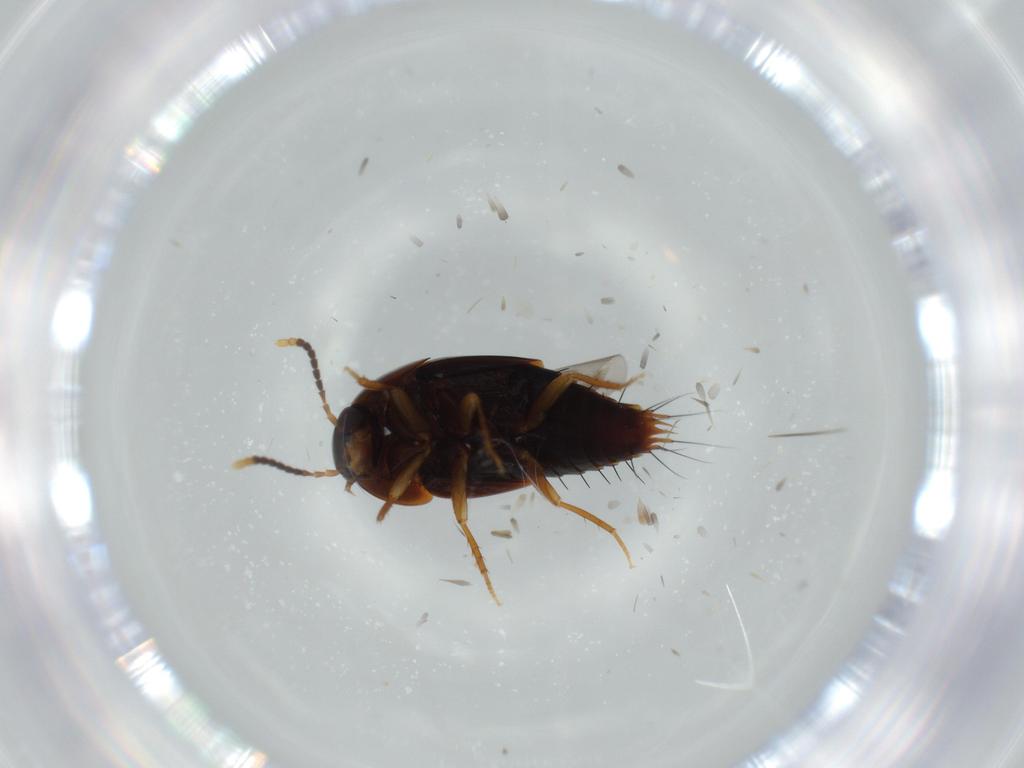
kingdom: Animalia
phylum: Arthropoda
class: Insecta
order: Coleoptera
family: Staphylinidae
